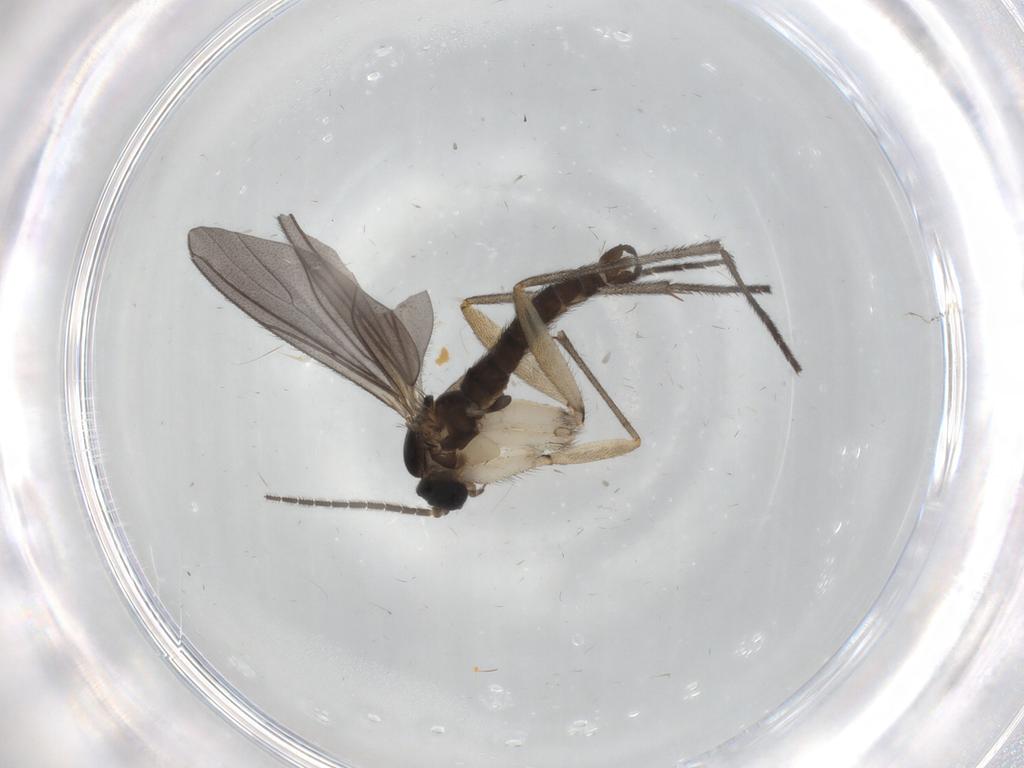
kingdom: Animalia
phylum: Arthropoda
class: Insecta
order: Diptera
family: Sciaridae
